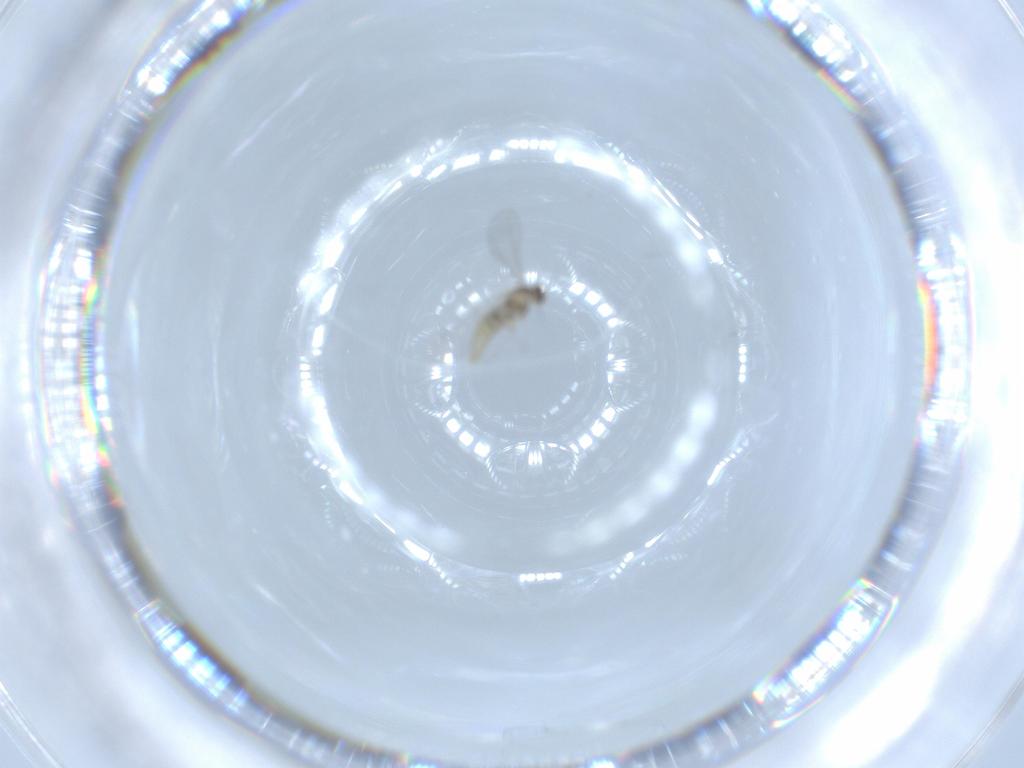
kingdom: Animalia
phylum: Arthropoda
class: Insecta
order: Diptera
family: Cecidomyiidae
